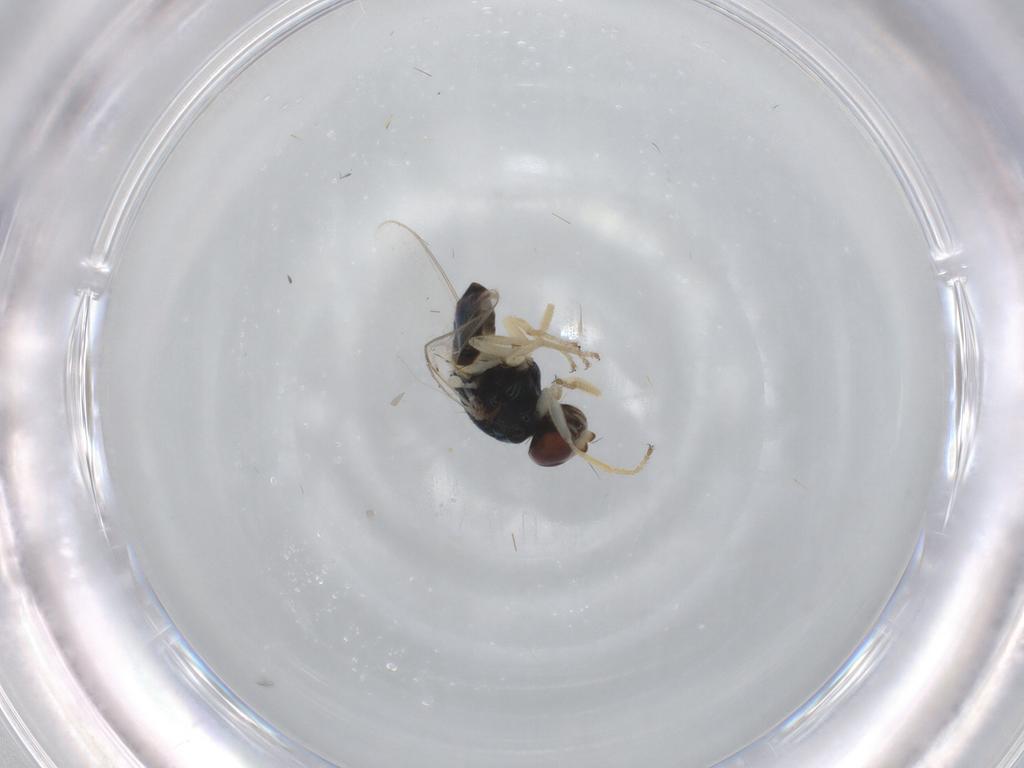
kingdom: Animalia
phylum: Arthropoda
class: Insecta
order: Diptera
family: Chloropidae
